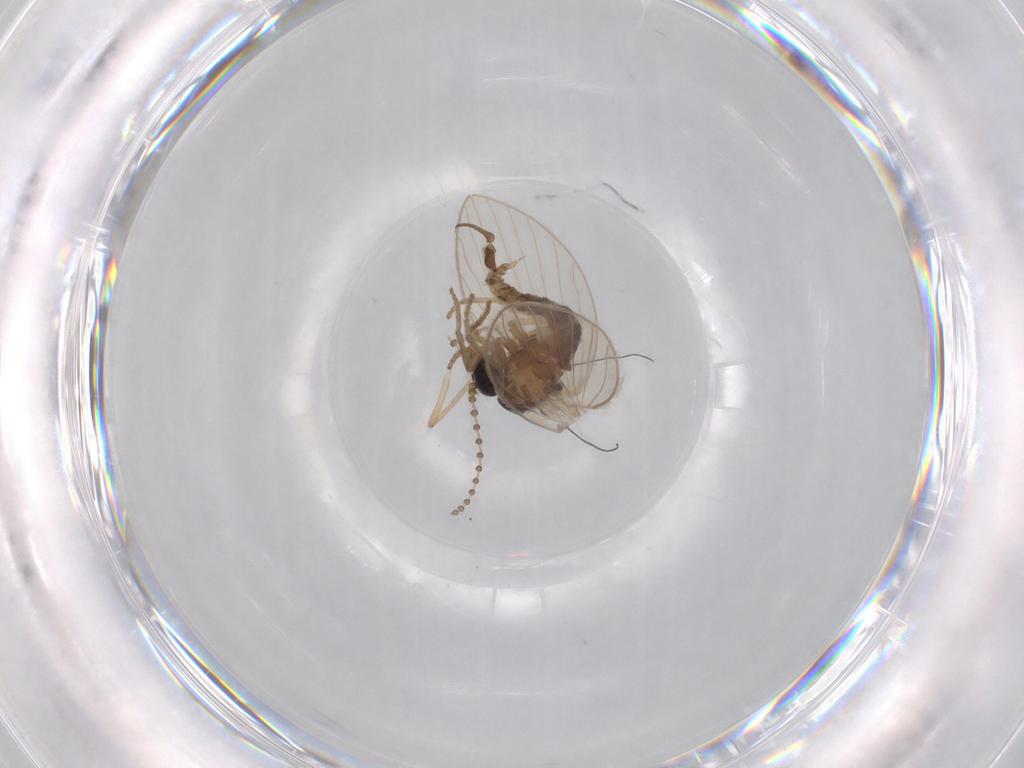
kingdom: Animalia
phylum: Arthropoda
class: Insecta
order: Diptera
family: Psychodidae
